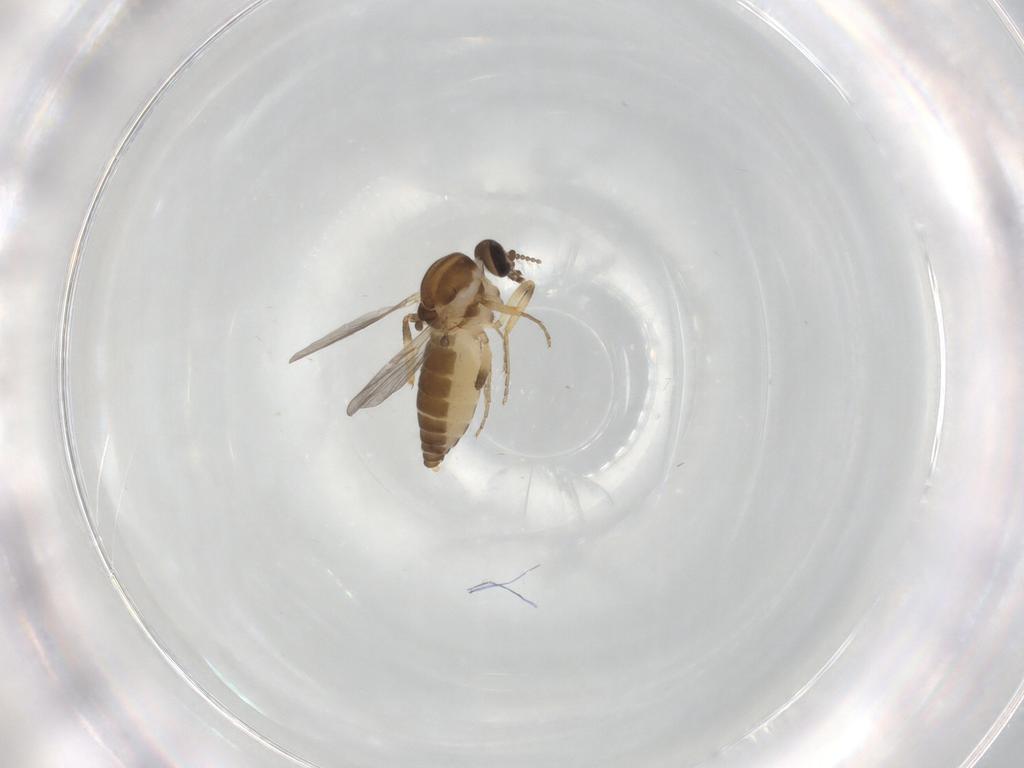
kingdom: Animalia
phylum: Arthropoda
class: Insecta
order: Diptera
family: Ceratopogonidae
